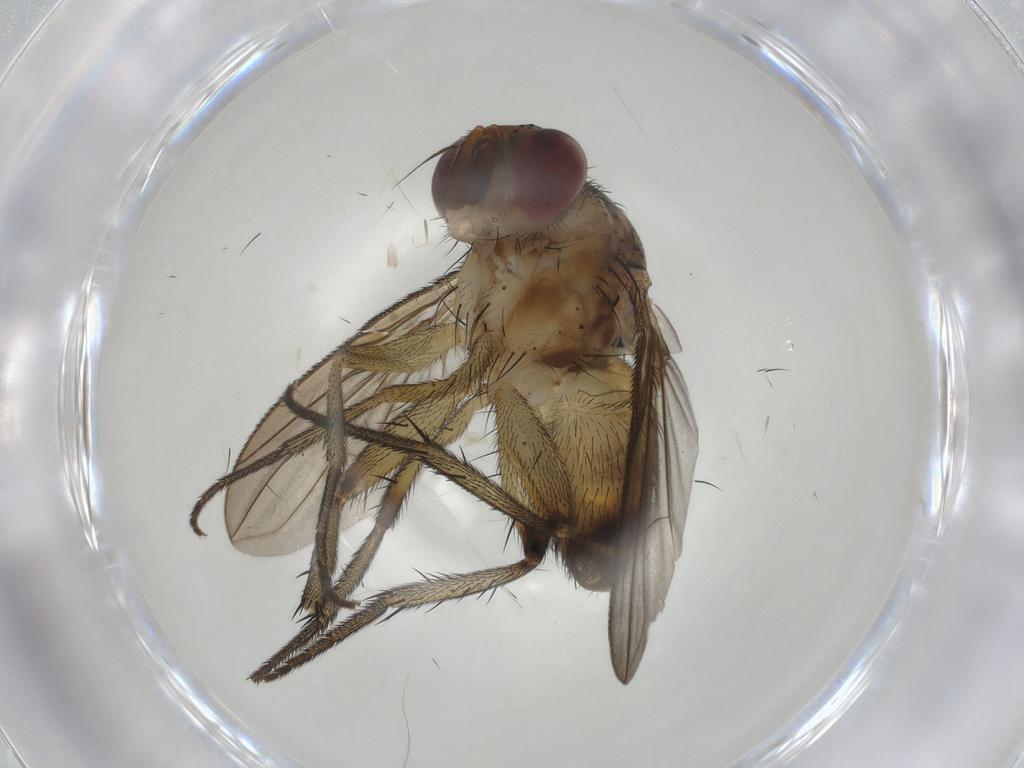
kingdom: Animalia
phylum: Arthropoda
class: Insecta
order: Diptera
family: Tachinidae
